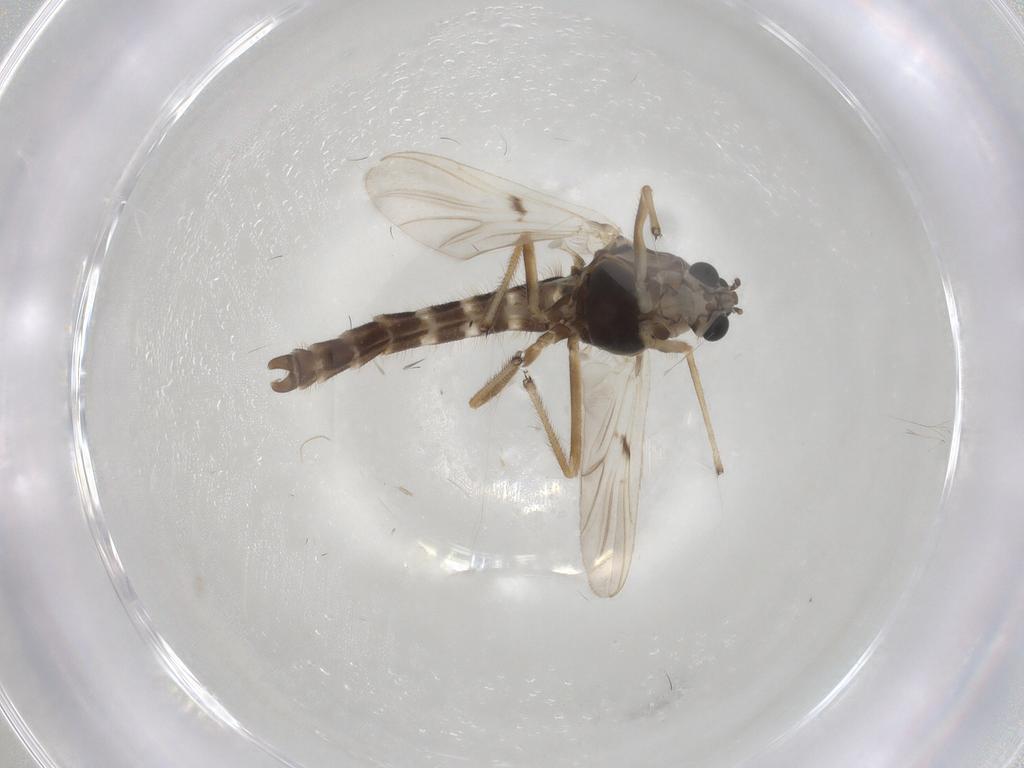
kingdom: Animalia
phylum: Arthropoda
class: Insecta
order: Diptera
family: Chironomidae
